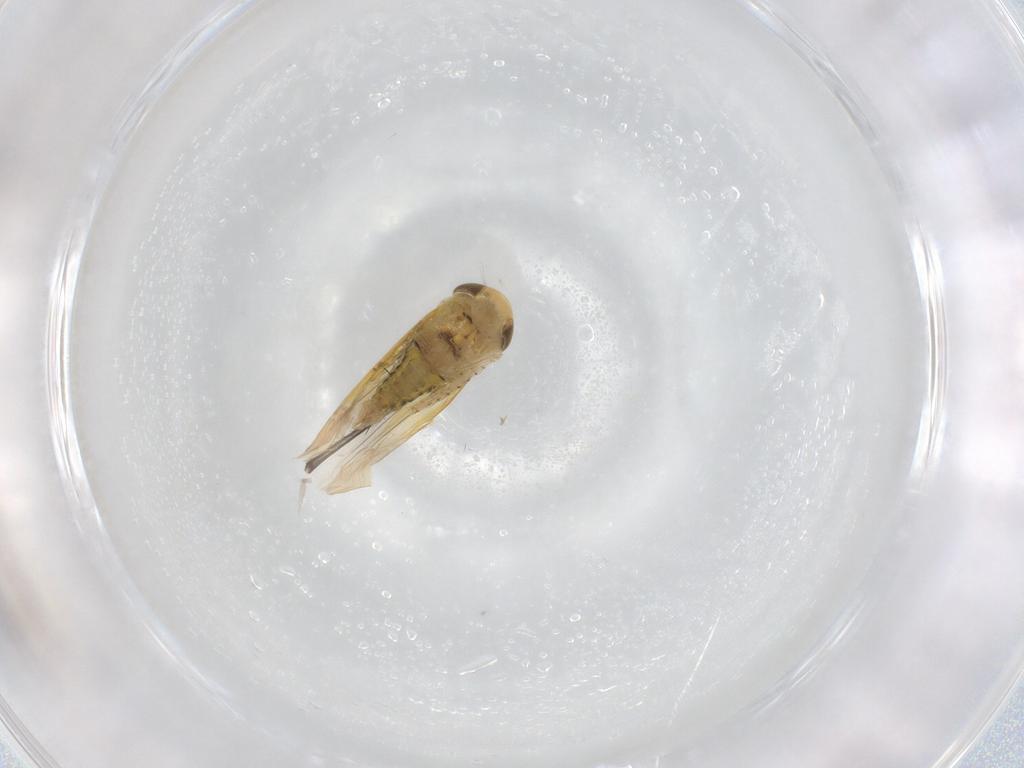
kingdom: Animalia
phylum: Arthropoda
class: Insecta
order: Hemiptera
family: Cicadellidae
